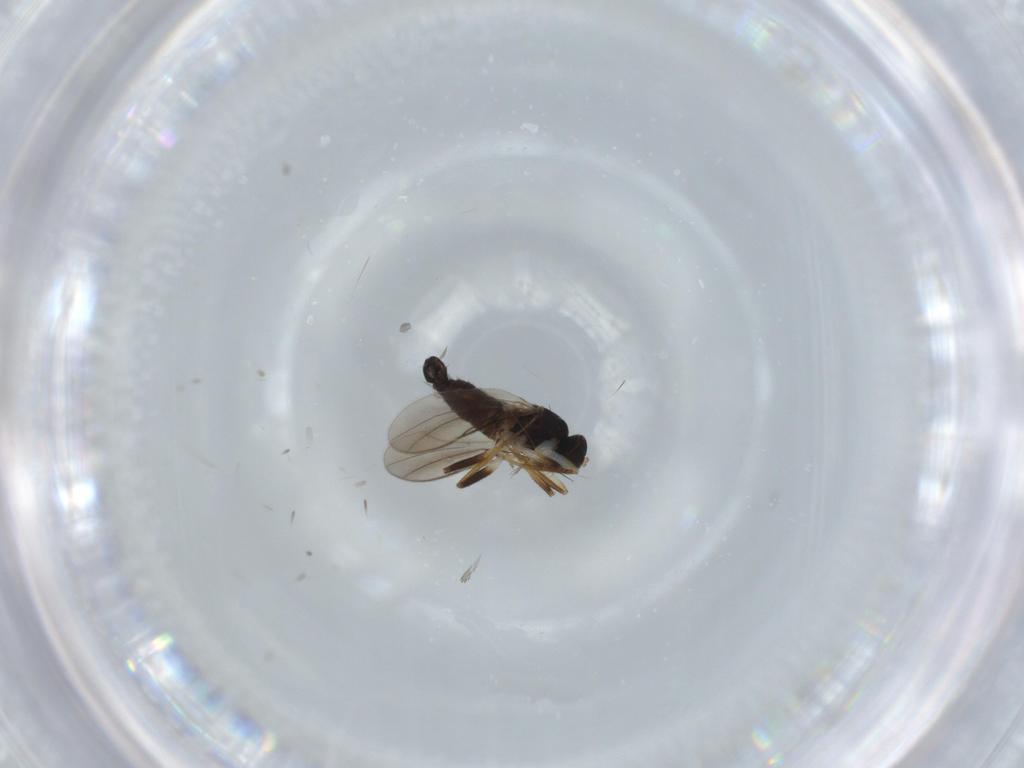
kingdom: Animalia
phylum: Arthropoda
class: Insecta
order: Diptera
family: Hybotidae
